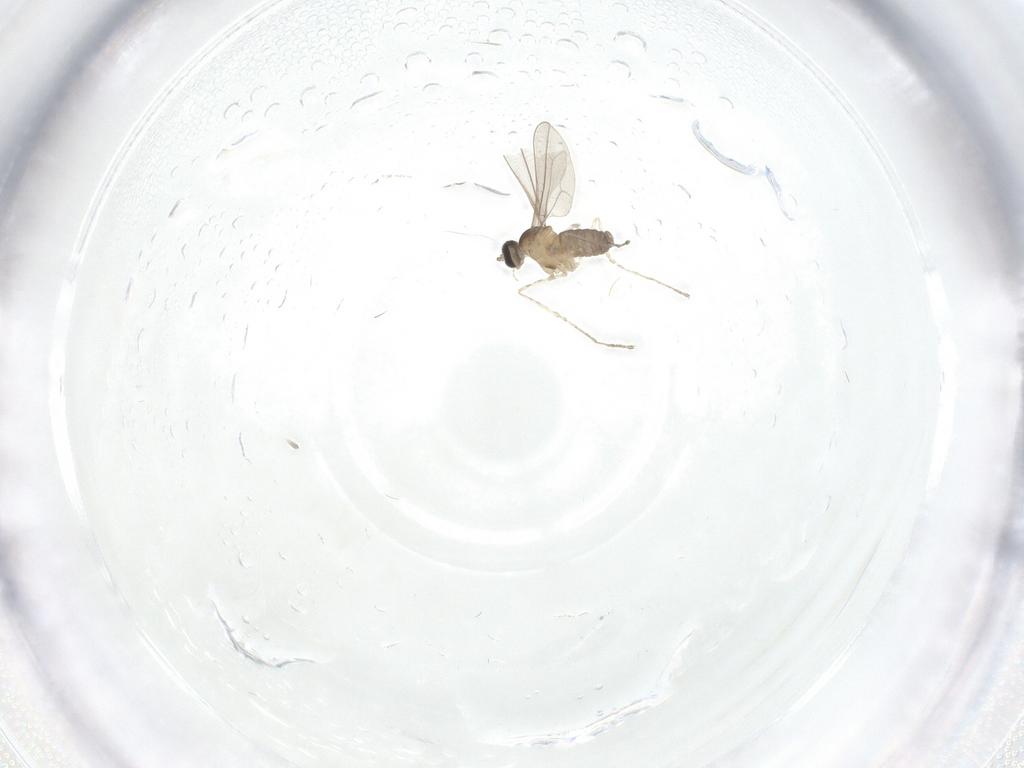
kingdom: Animalia
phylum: Arthropoda
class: Insecta
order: Diptera
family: Cecidomyiidae
